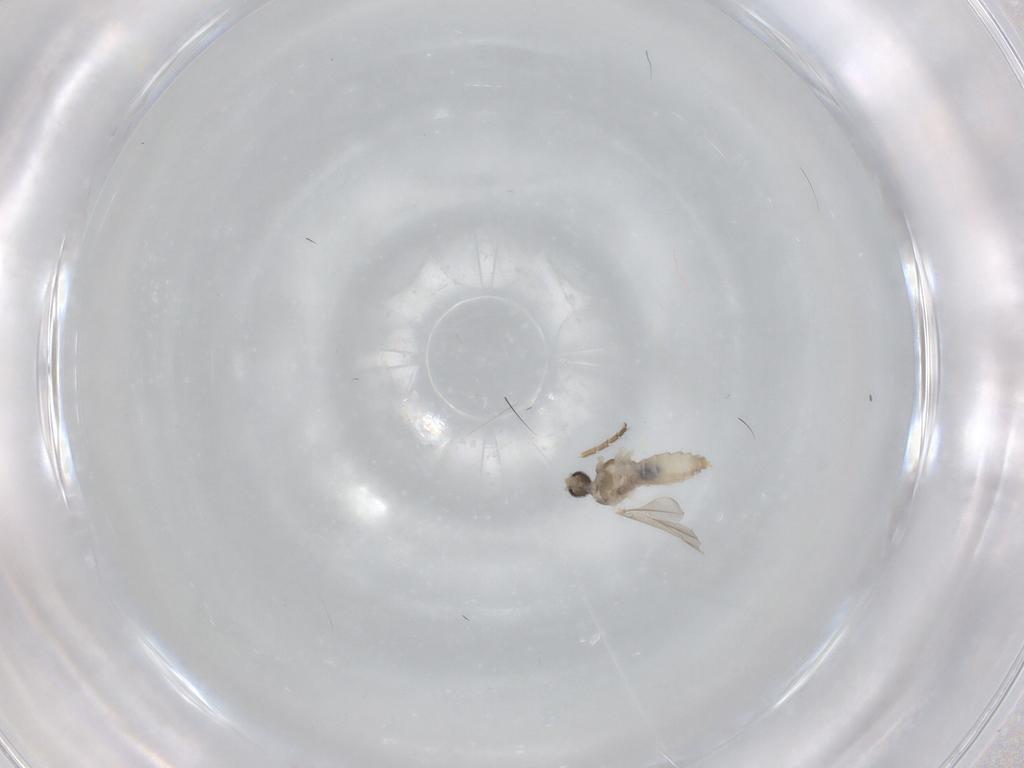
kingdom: Animalia
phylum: Arthropoda
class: Insecta
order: Diptera
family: Cecidomyiidae
